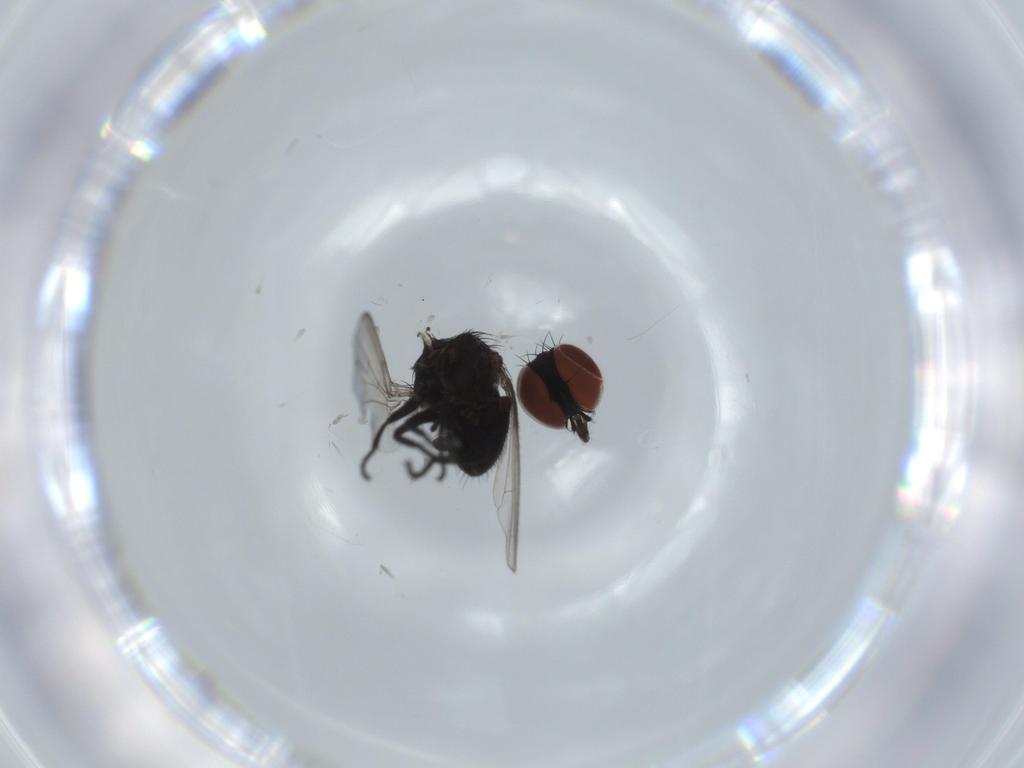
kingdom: Animalia
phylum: Arthropoda
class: Insecta
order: Diptera
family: Milichiidae
